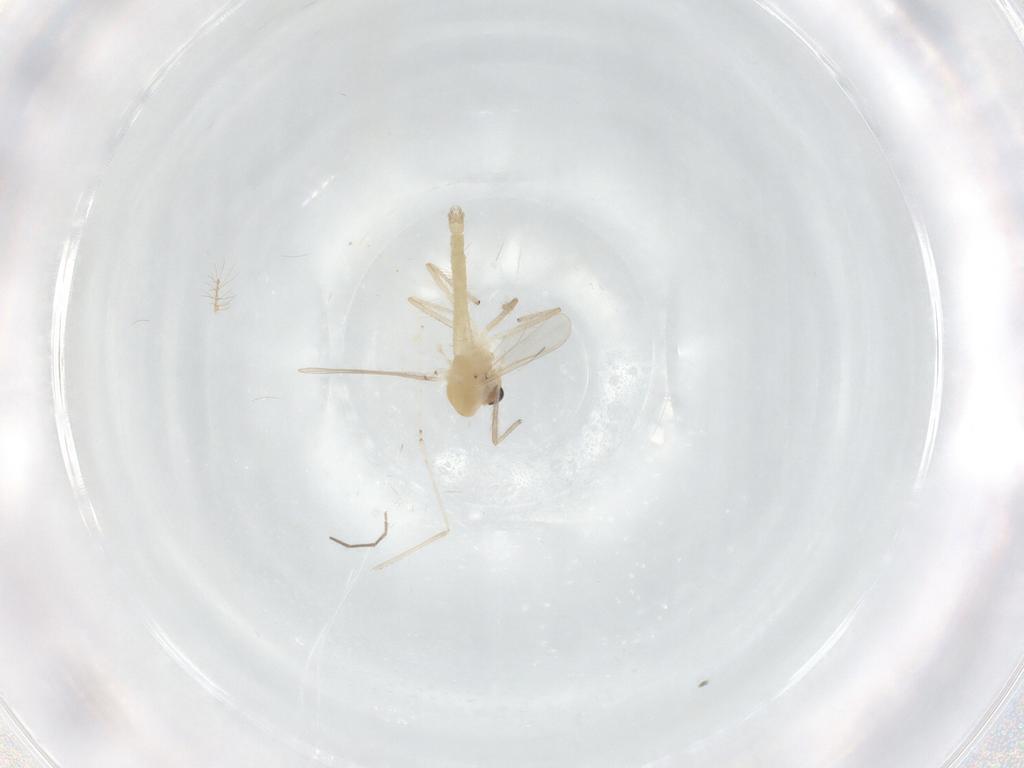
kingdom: Animalia
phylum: Arthropoda
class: Insecta
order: Diptera
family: Chironomidae
